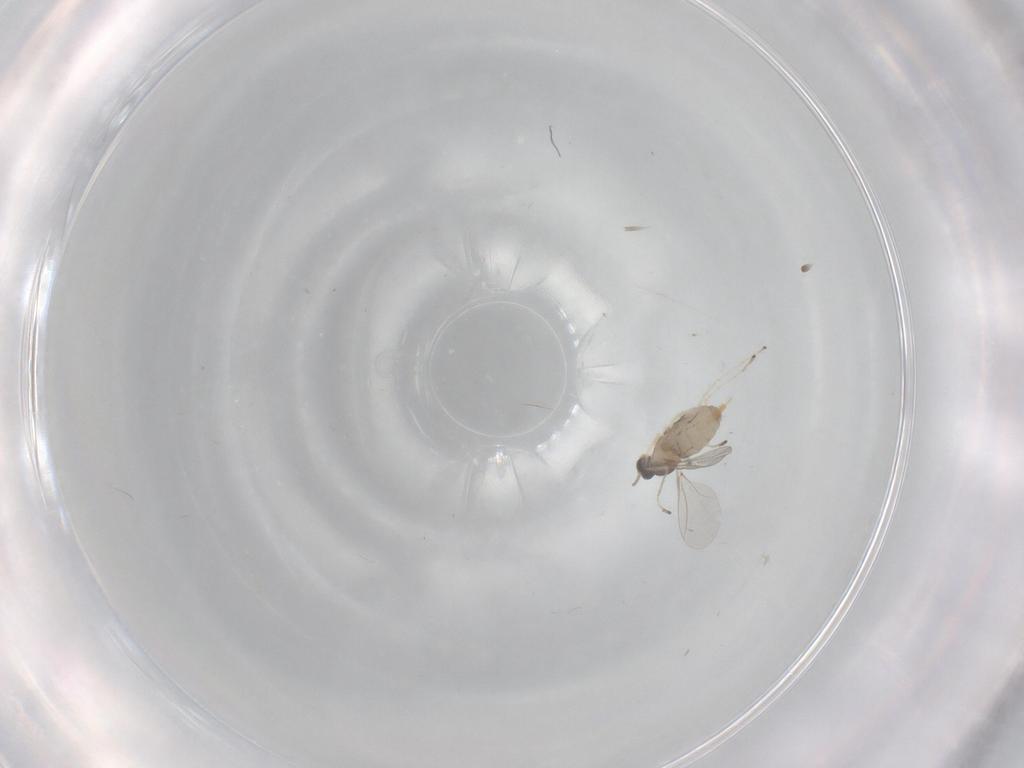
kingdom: Animalia
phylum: Arthropoda
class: Insecta
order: Diptera
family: Cecidomyiidae
